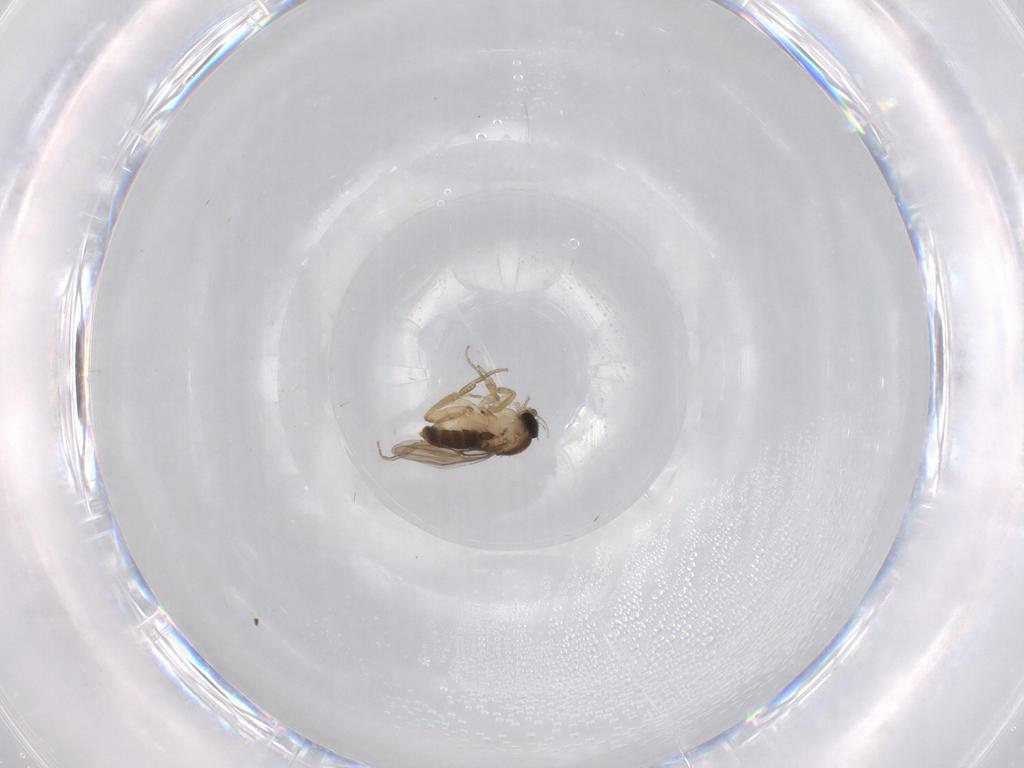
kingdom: Animalia
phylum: Arthropoda
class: Insecta
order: Diptera
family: Phoridae
